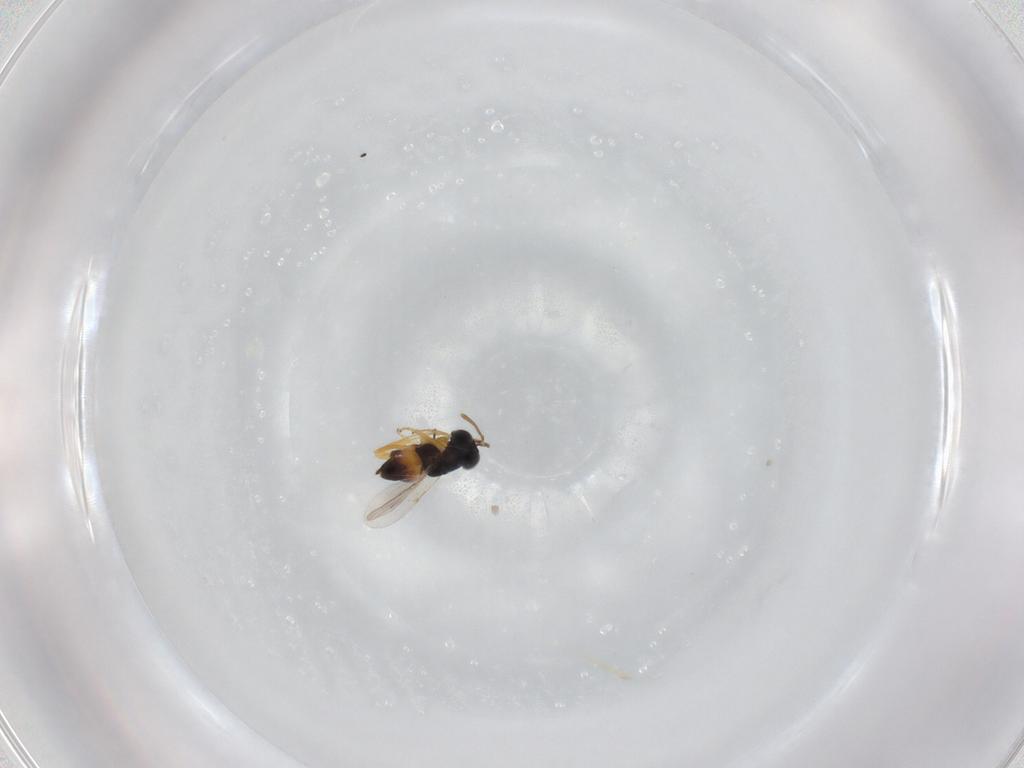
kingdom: Animalia
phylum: Arthropoda
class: Insecta
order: Hymenoptera
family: Encyrtidae
